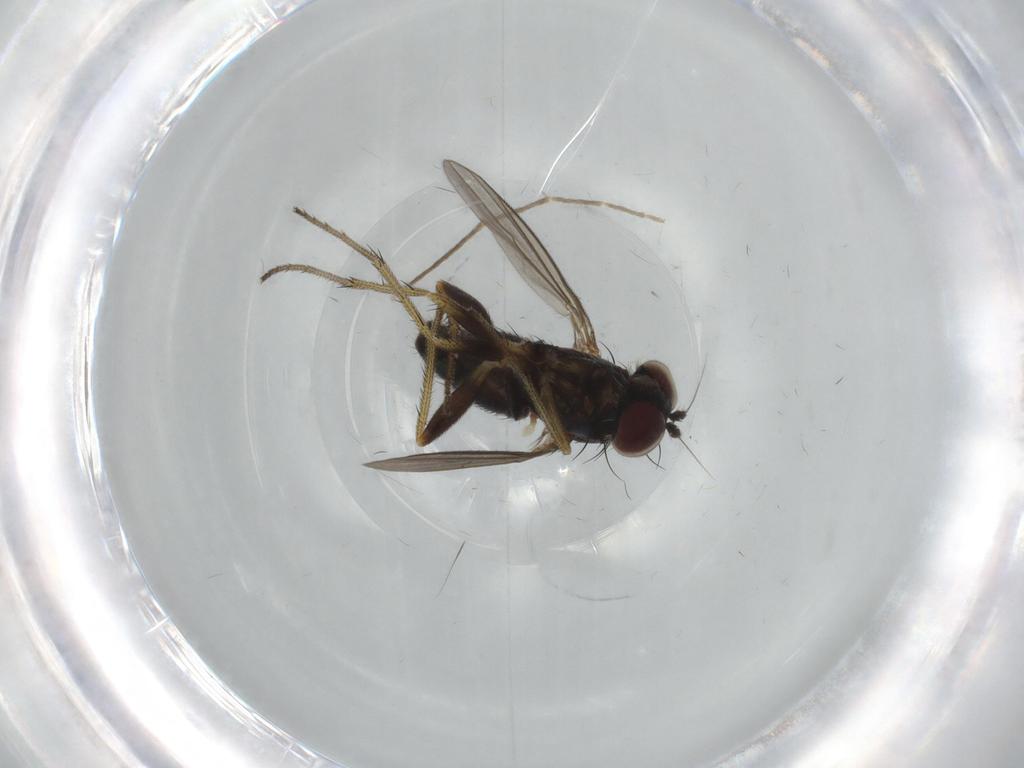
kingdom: Animalia
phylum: Arthropoda
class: Insecta
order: Diptera
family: Chironomidae
